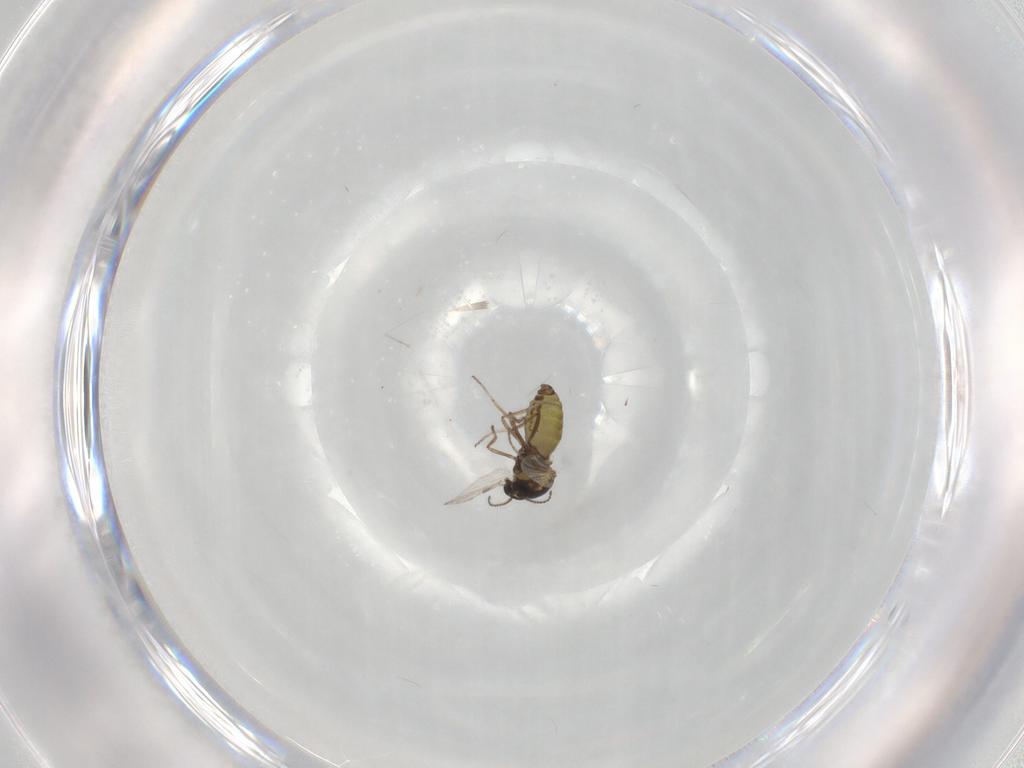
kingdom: Animalia
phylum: Arthropoda
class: Insecta
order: Diptera
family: Ceratopogonidae
